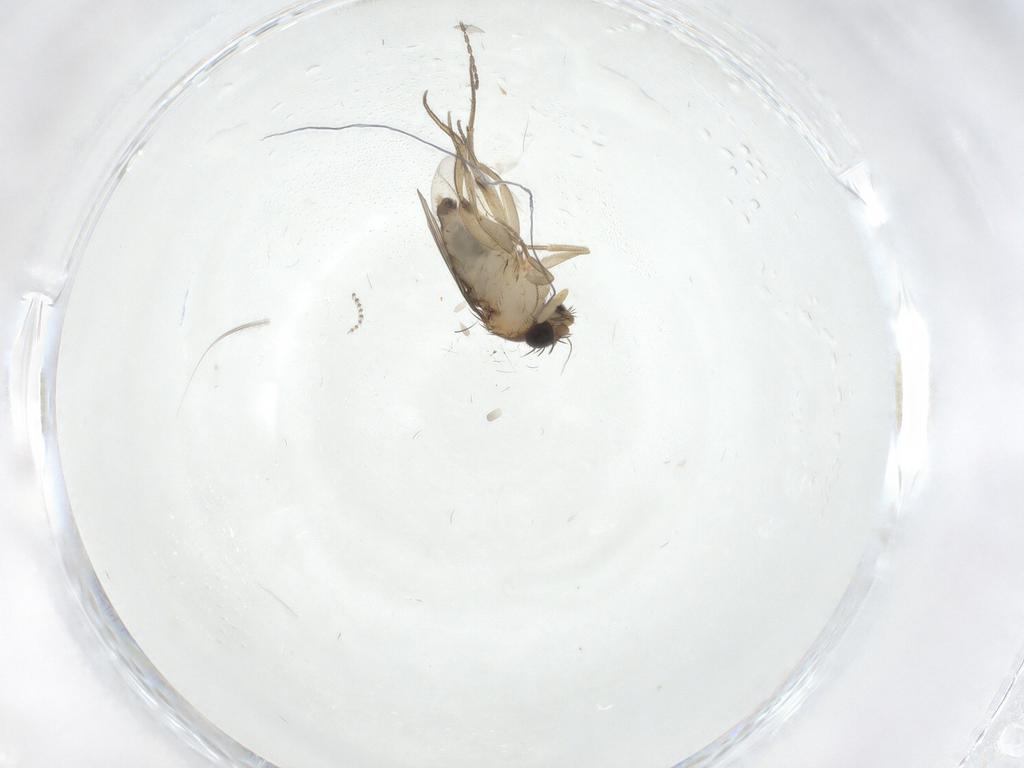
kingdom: Animalia
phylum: Arthropoda
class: Insecta
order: Diptera
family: Phoridae
